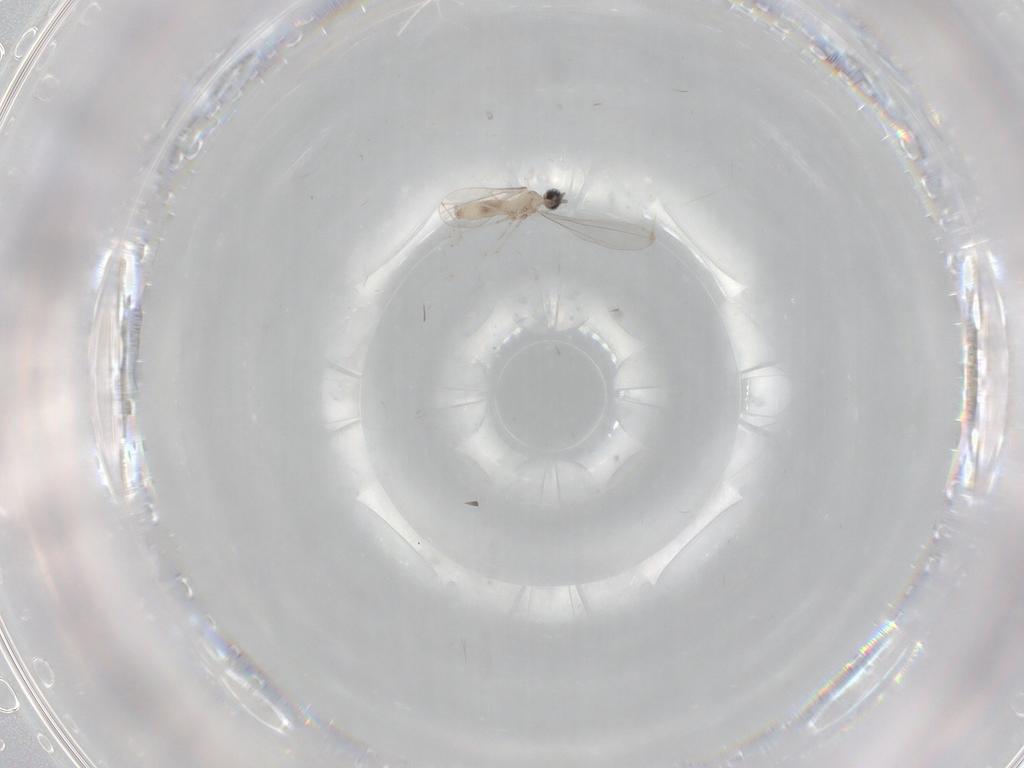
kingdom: Animalia
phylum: Arthropoda
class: Insecta
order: Diptera
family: Cecidomyiidae
